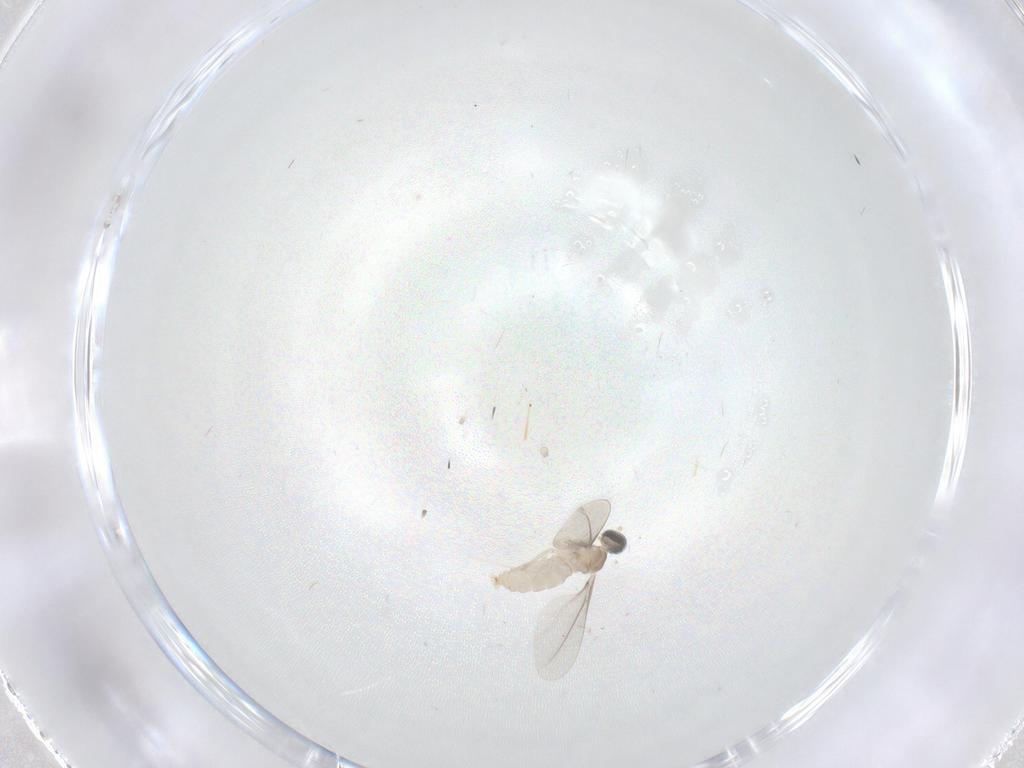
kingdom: Animalia
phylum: Arthropoda
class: Insecta
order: Diptera
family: Cecidomyiidae
